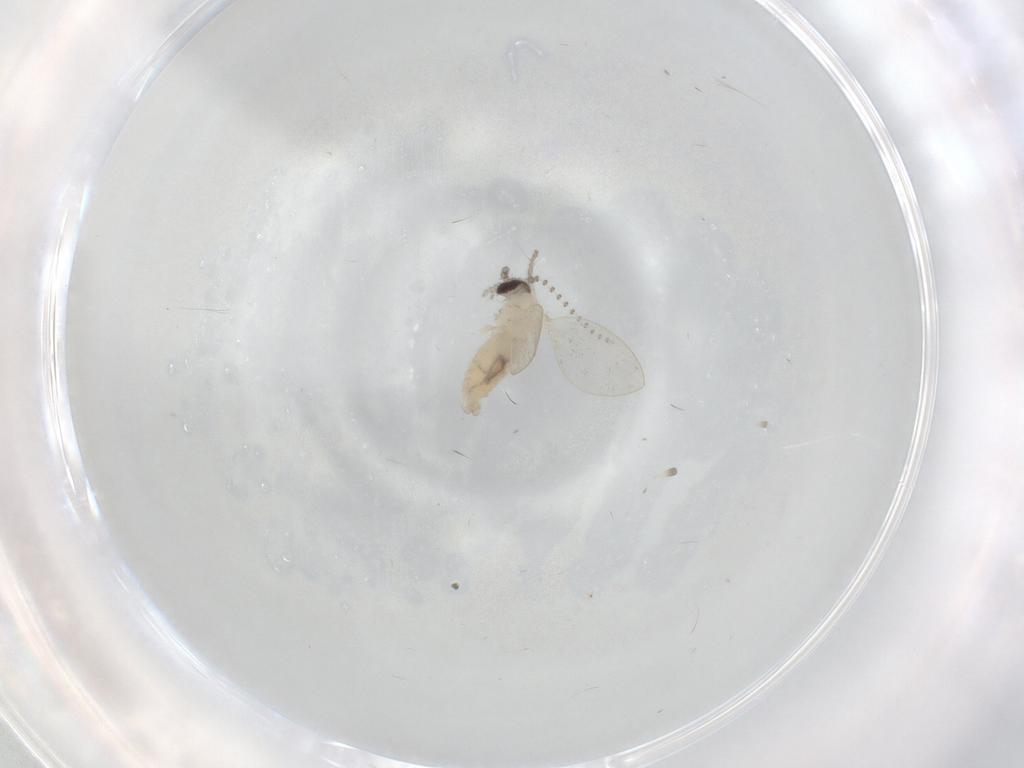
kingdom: Animalia
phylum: Arthropoda
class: Insecta
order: Diptera
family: Psychodidae
